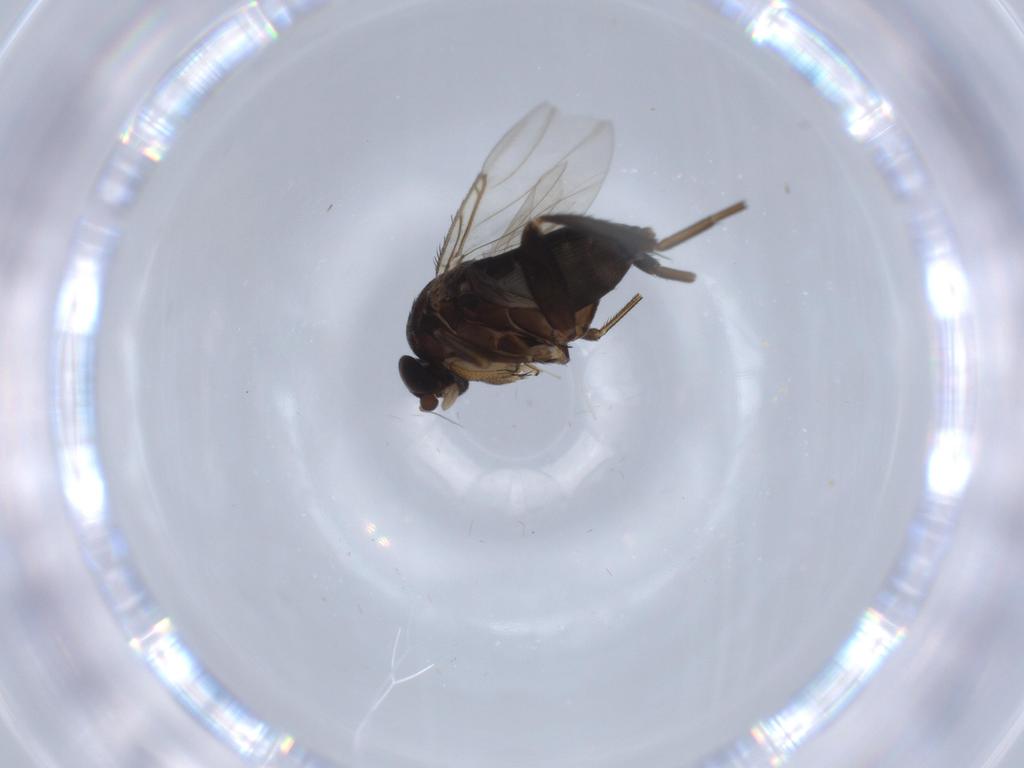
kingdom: Animalia
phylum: Arthropoda
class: Insecta
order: Diptera
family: Phoridae
